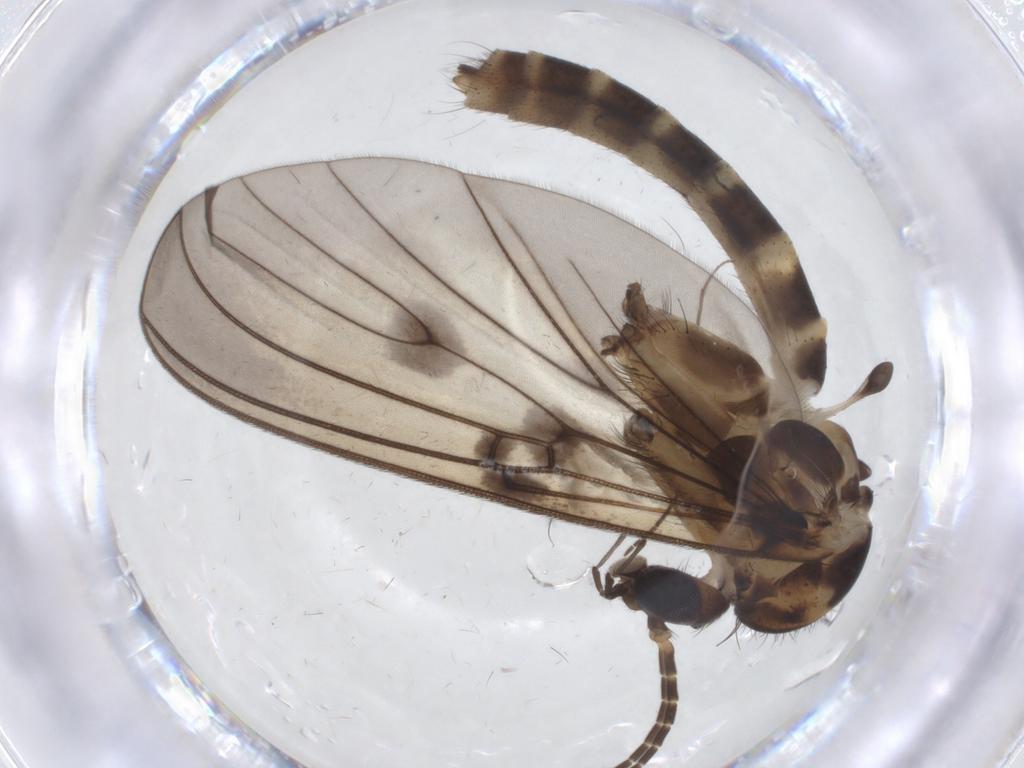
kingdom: Animalia
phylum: Arthropoda
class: Insecta
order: Diptera
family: Mycetophilidae
